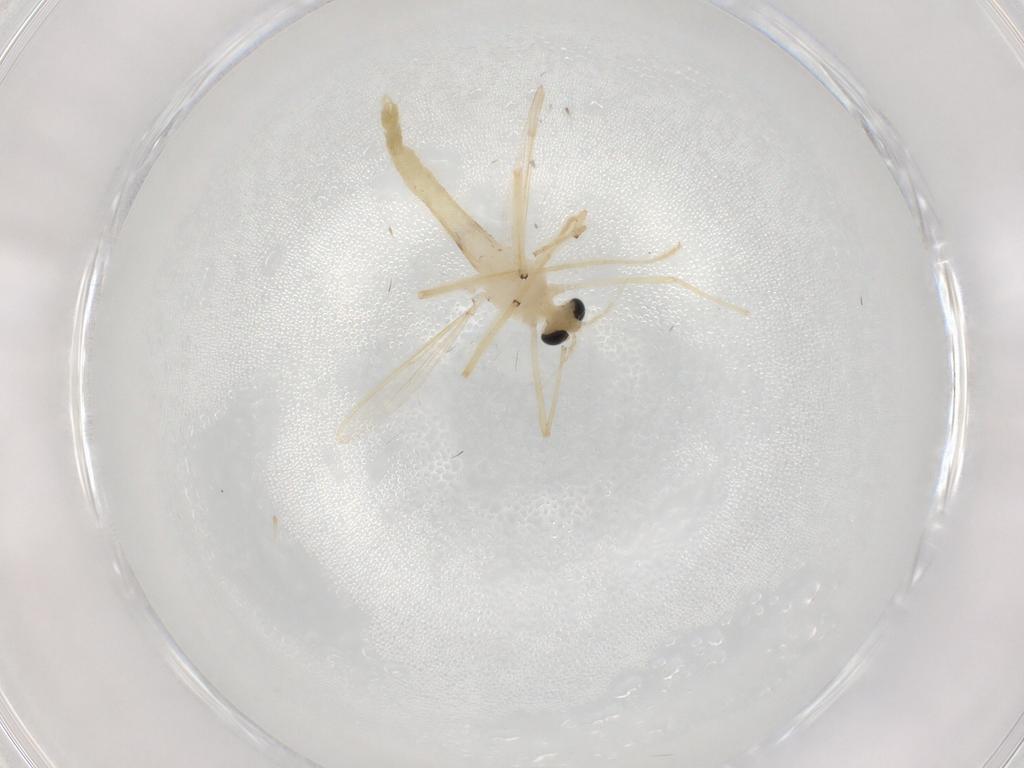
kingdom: Animalia
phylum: Arthropoda
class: Insecta
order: Diptera
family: Chironomidae
